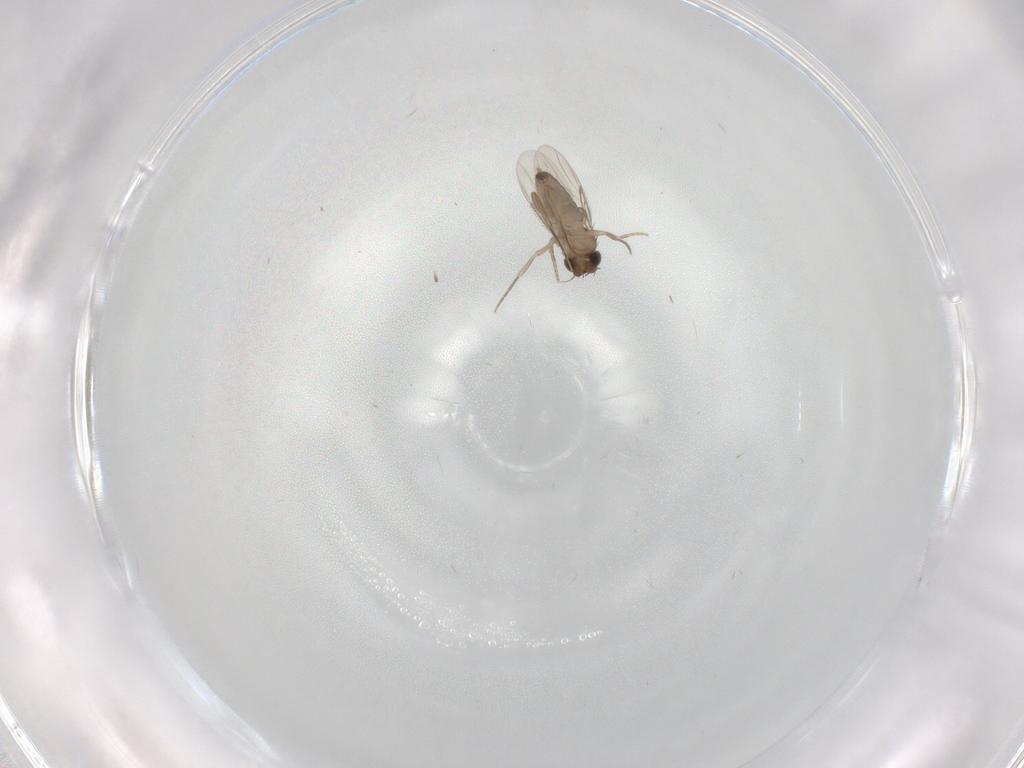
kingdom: Animalia
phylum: Arthropoda
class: Insecta
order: Diptera
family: Phoridae
